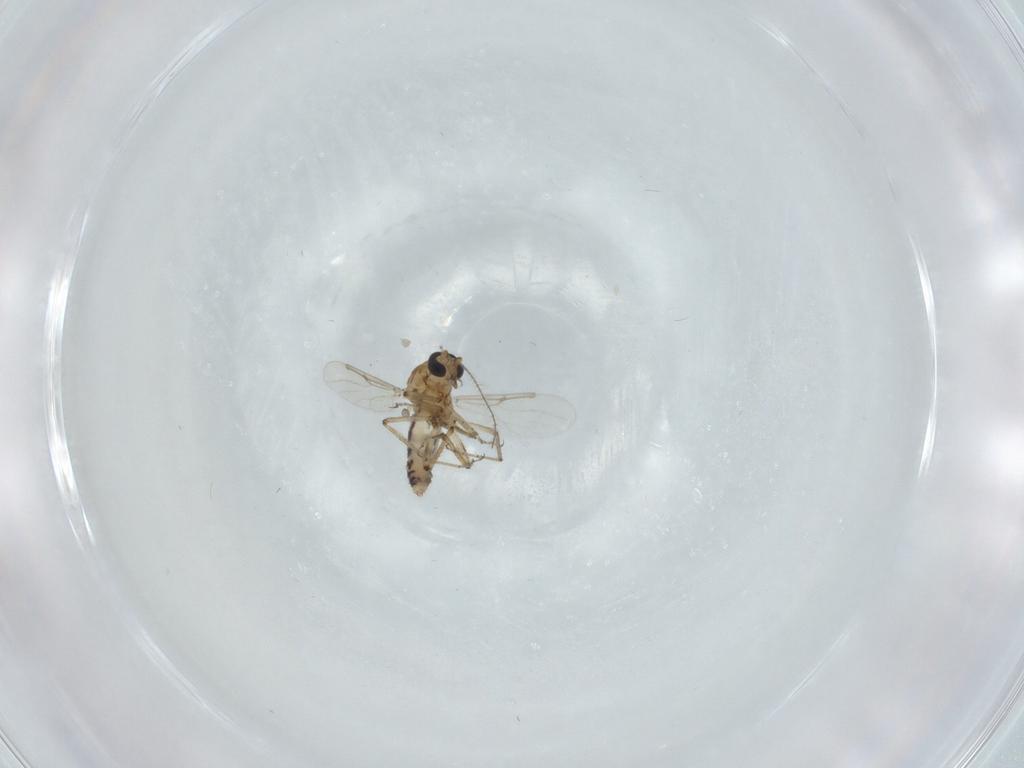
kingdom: Animalia
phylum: Arthropoda
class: Insecta
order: Diptera
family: Ceratopogonidae
